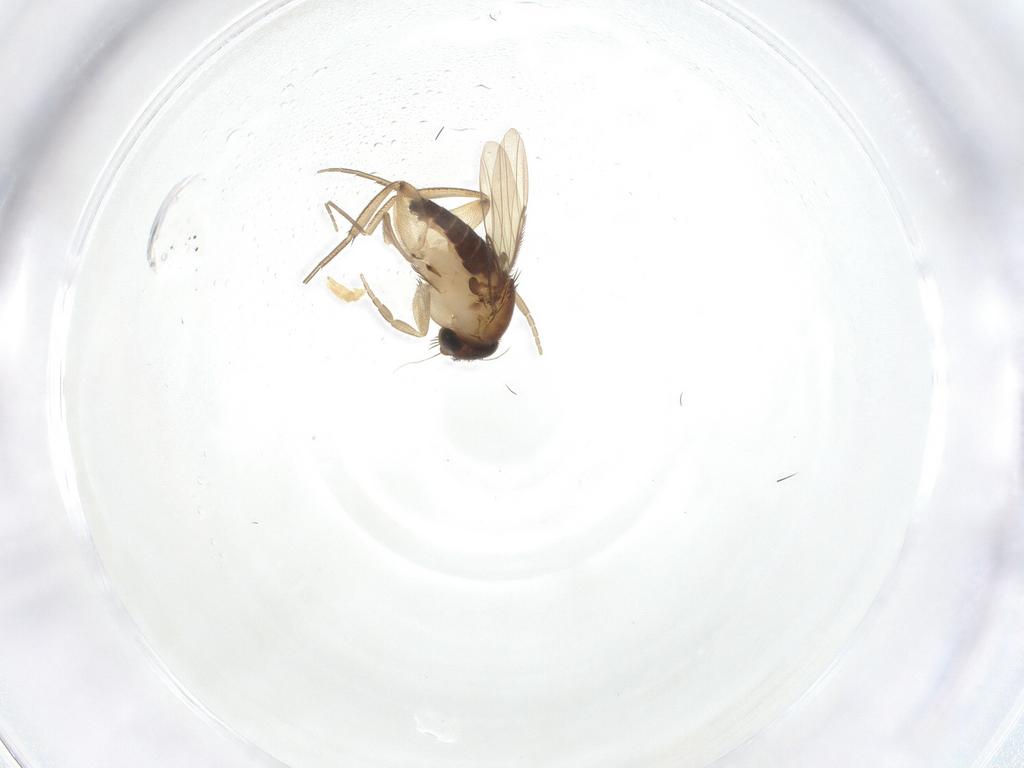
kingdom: Animalia
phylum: Arthropoda
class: Insecta
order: Diptera
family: Phoridae
